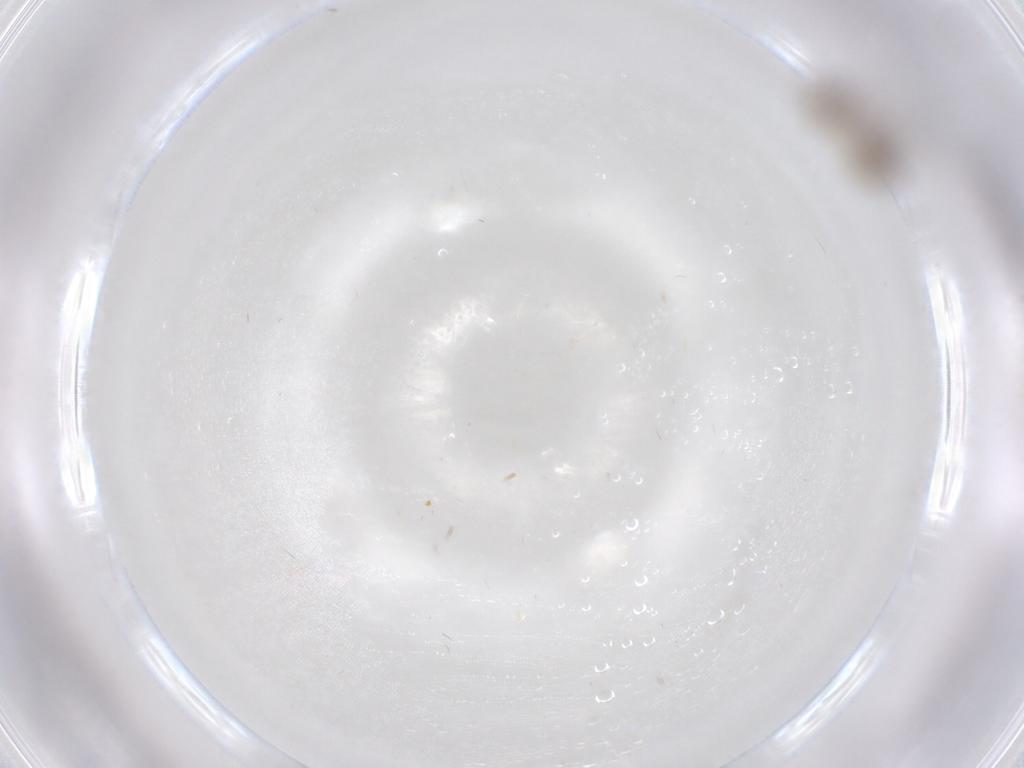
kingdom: Animalia
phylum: Arthropoda
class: Insecta
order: Hemiptera
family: Enicocephalidae
